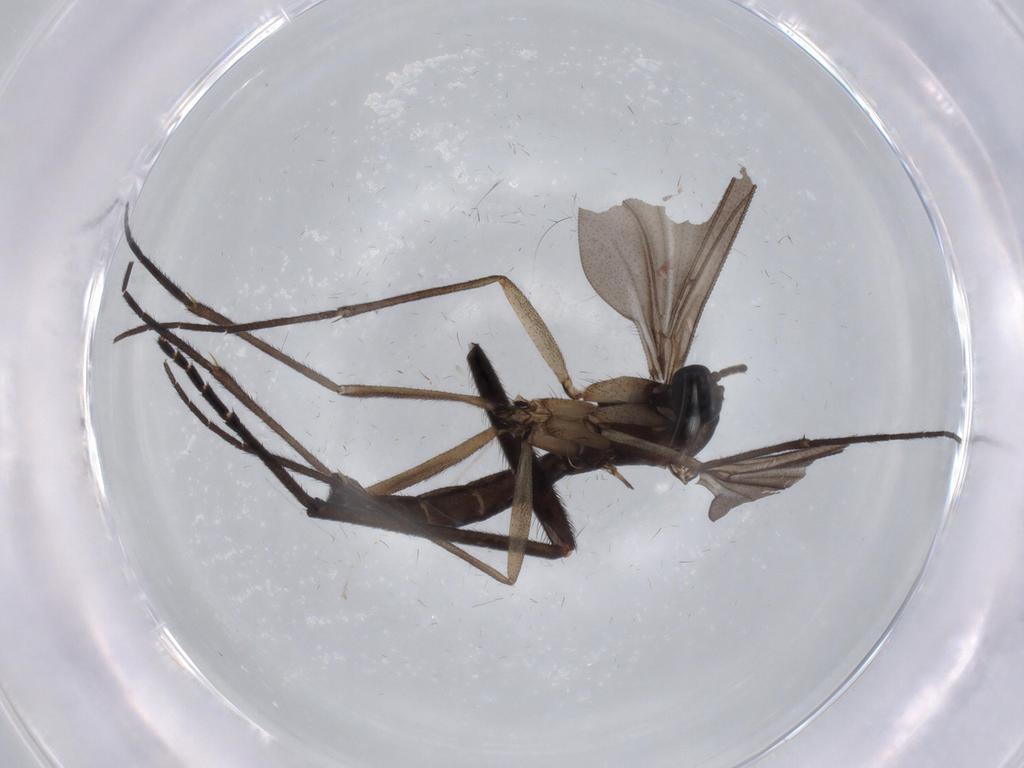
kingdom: Animalia
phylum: Arthropoda
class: Insecta
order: Diptera
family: Sciaridae
